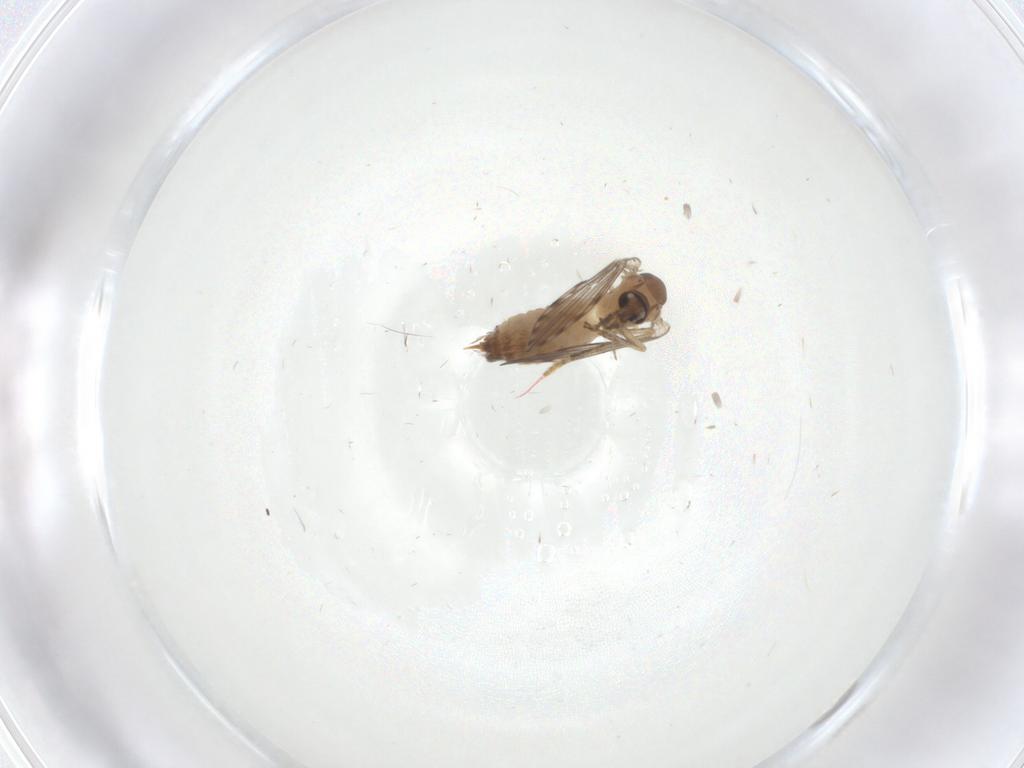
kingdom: Animalia
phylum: Arthropoda
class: Insecta
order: Diptera
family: Psychodidae
